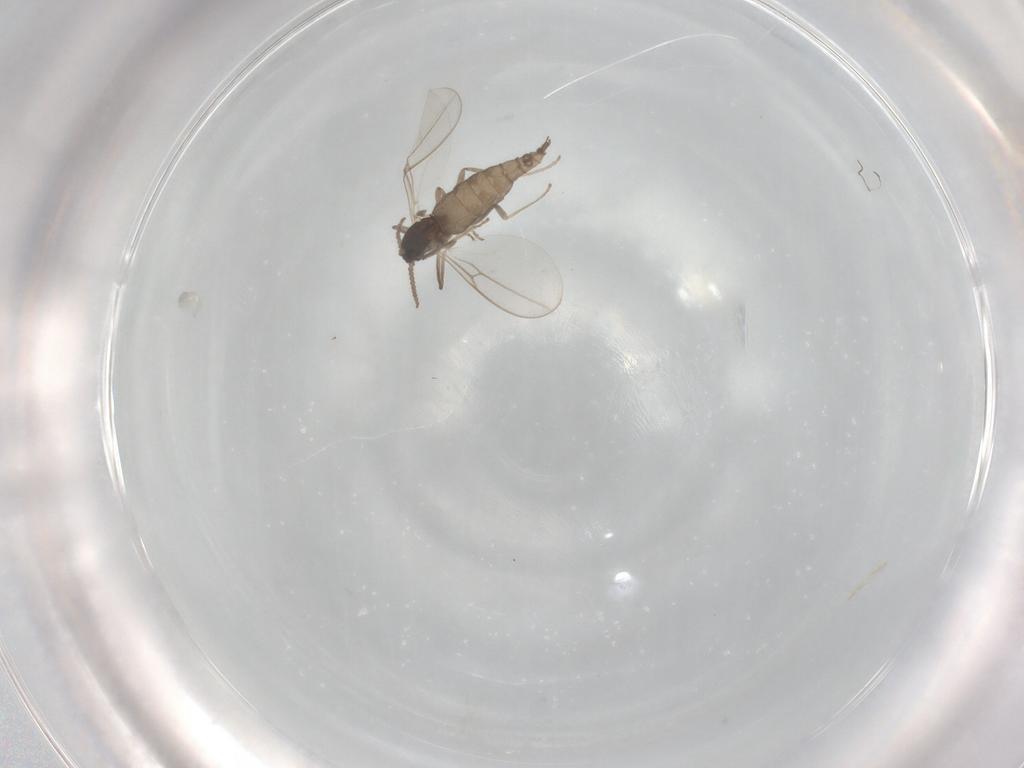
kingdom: Animalia
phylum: Arthropoda
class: Insecta
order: Diptera
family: Cecidomyiidae
